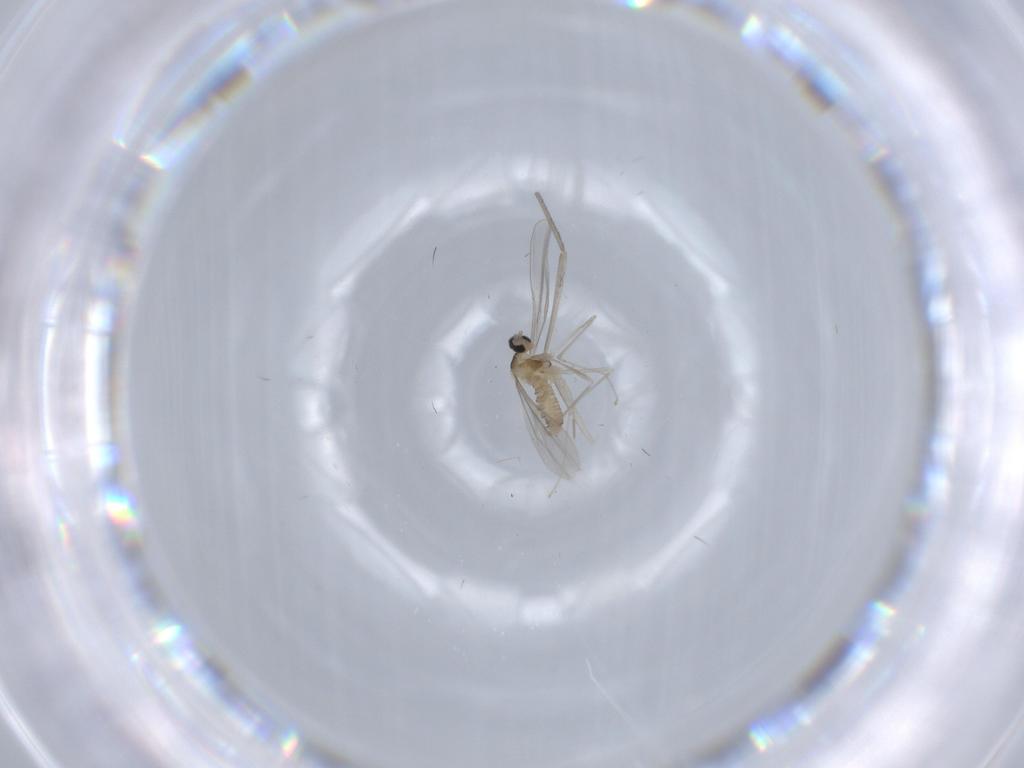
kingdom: Animalia
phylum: Arthropoda
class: Insecta
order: Diptera
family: Cecidomyiidae
